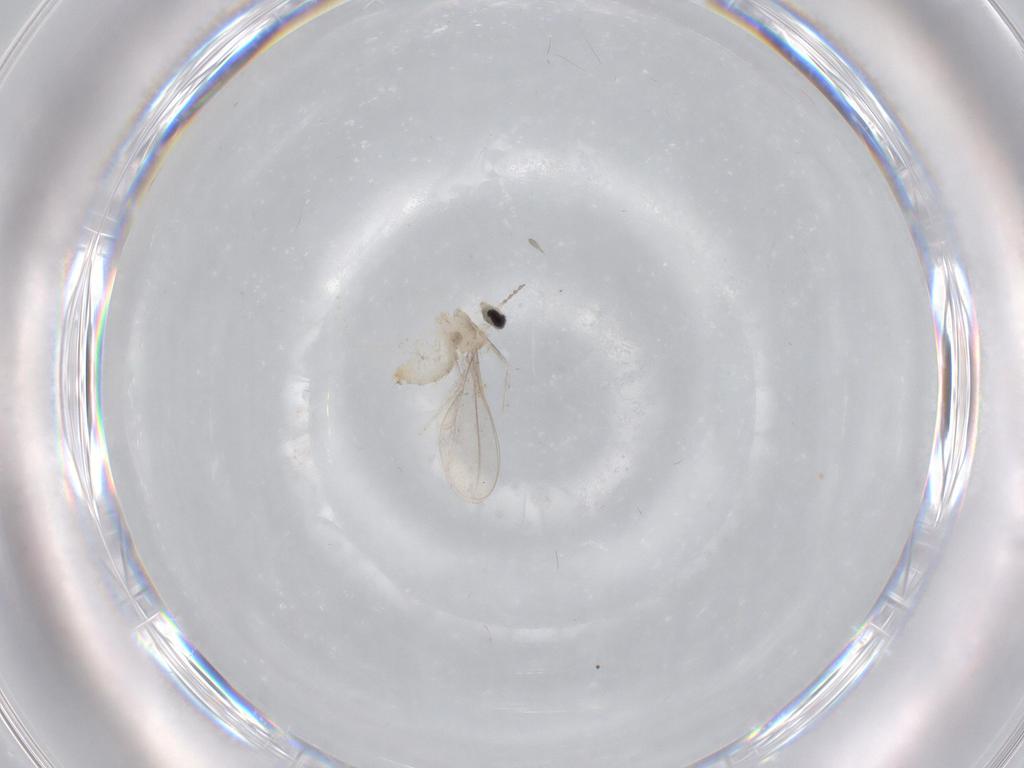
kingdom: Animalia
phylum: Arthropoda
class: Insecta
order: Diptera
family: Cecidomyiidae
